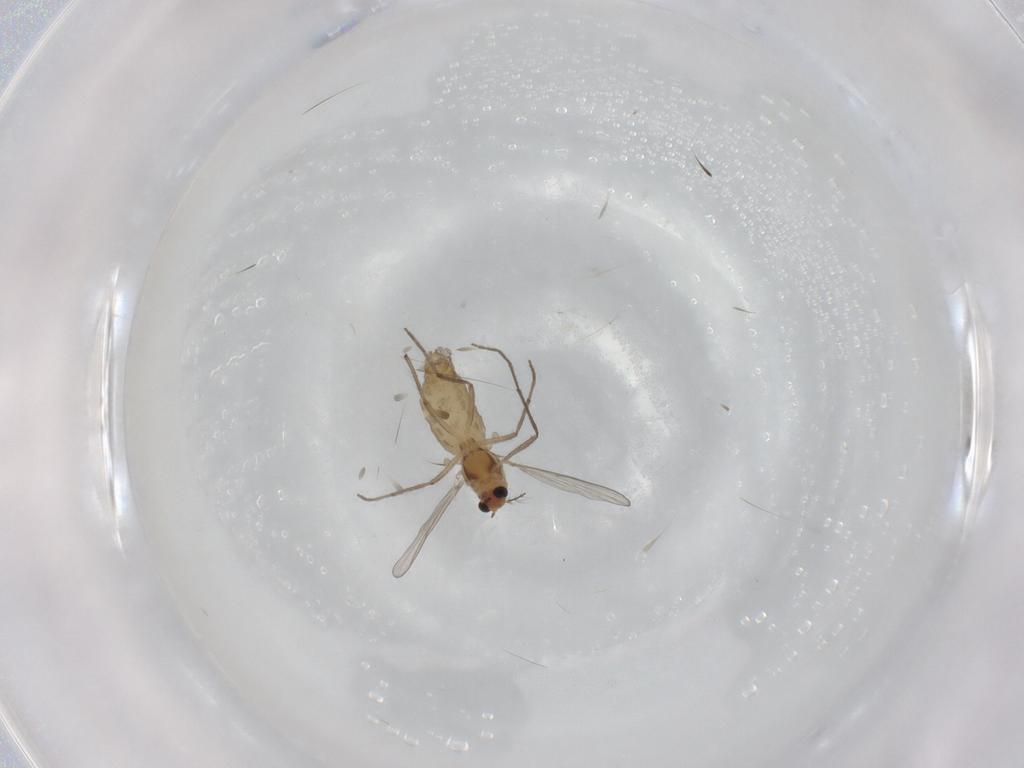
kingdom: Animalia
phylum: Arthropoda
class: Insecta
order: Diptera
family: Chironomidae
